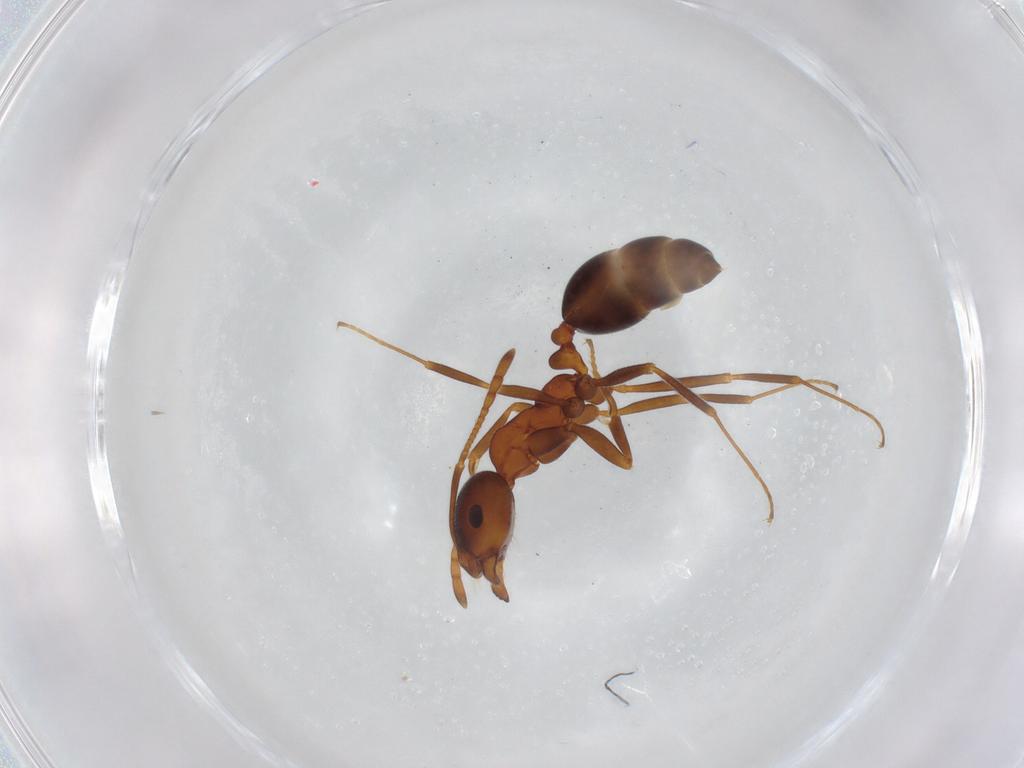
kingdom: Animalia
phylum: Arthropoda
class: Insecta
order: Hymenoptera
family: Formicidae
